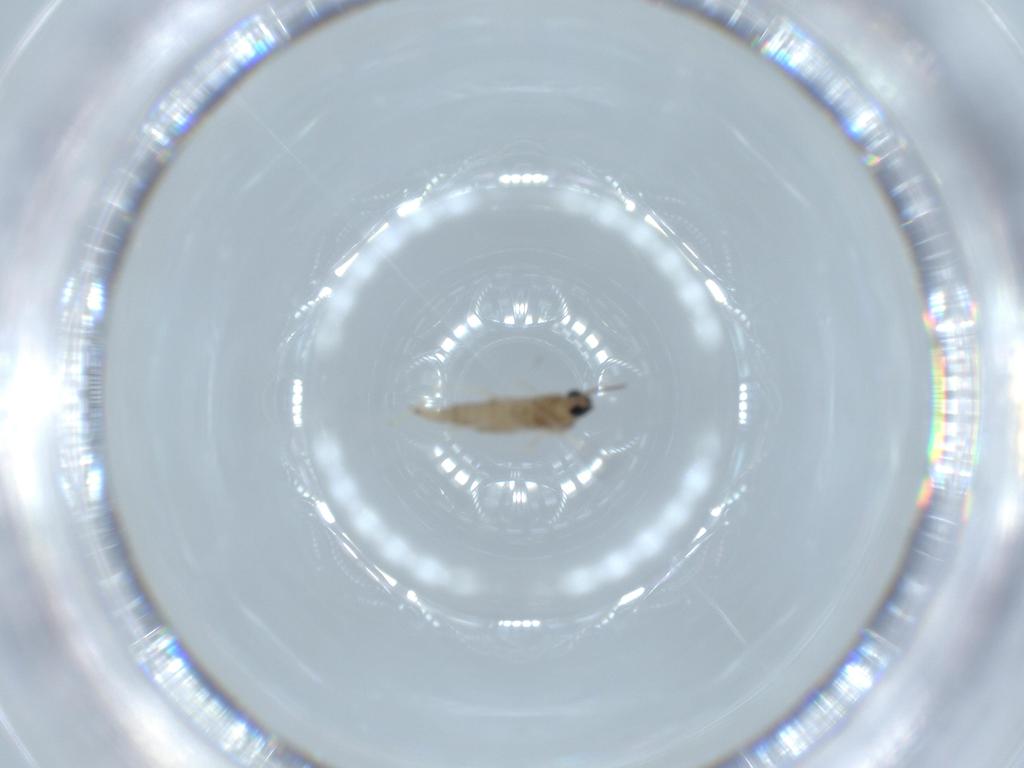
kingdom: Animalia
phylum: Arthropoda
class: Insecta
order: Diptera
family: Cecidomyiidae
